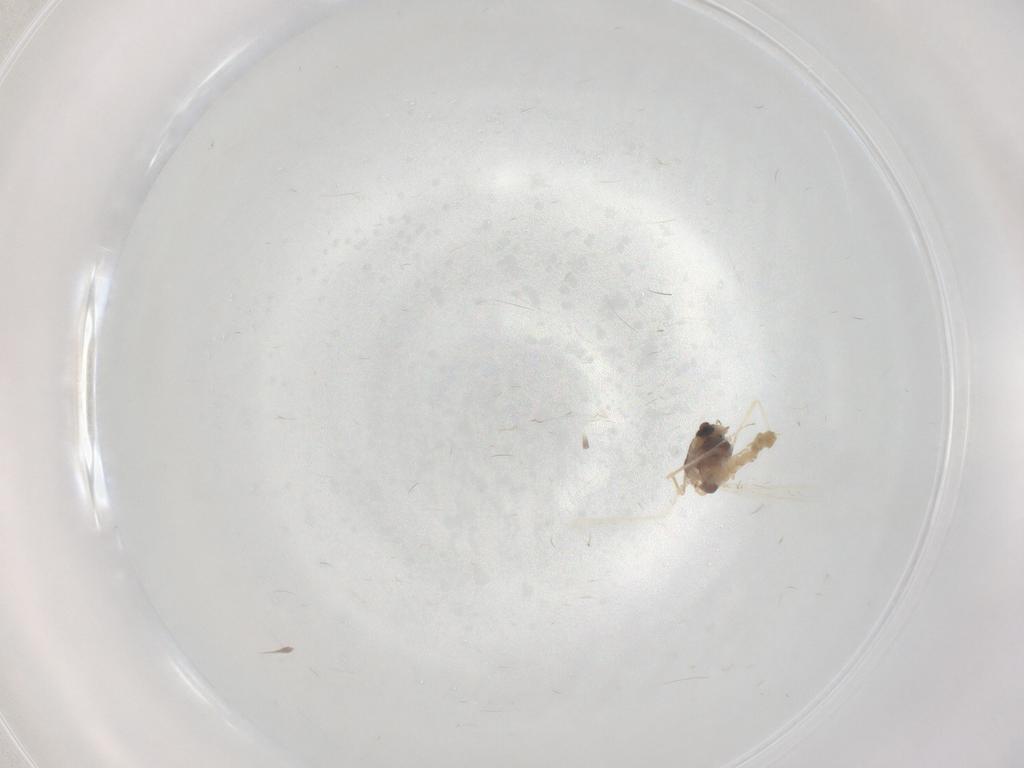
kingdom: Animalia
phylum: Arthropoda
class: Insecta
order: Diptera
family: Chironomidae
